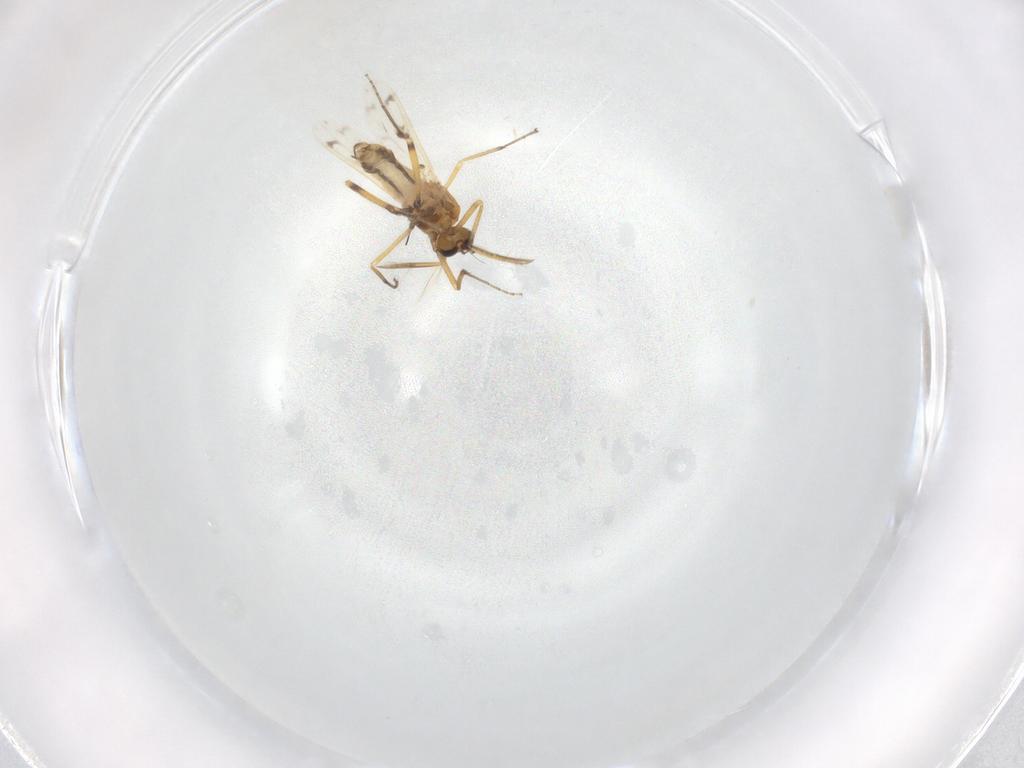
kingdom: Animalia
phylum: Arthropoda
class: Insecta
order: Diptera
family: Ceratopogonidae
